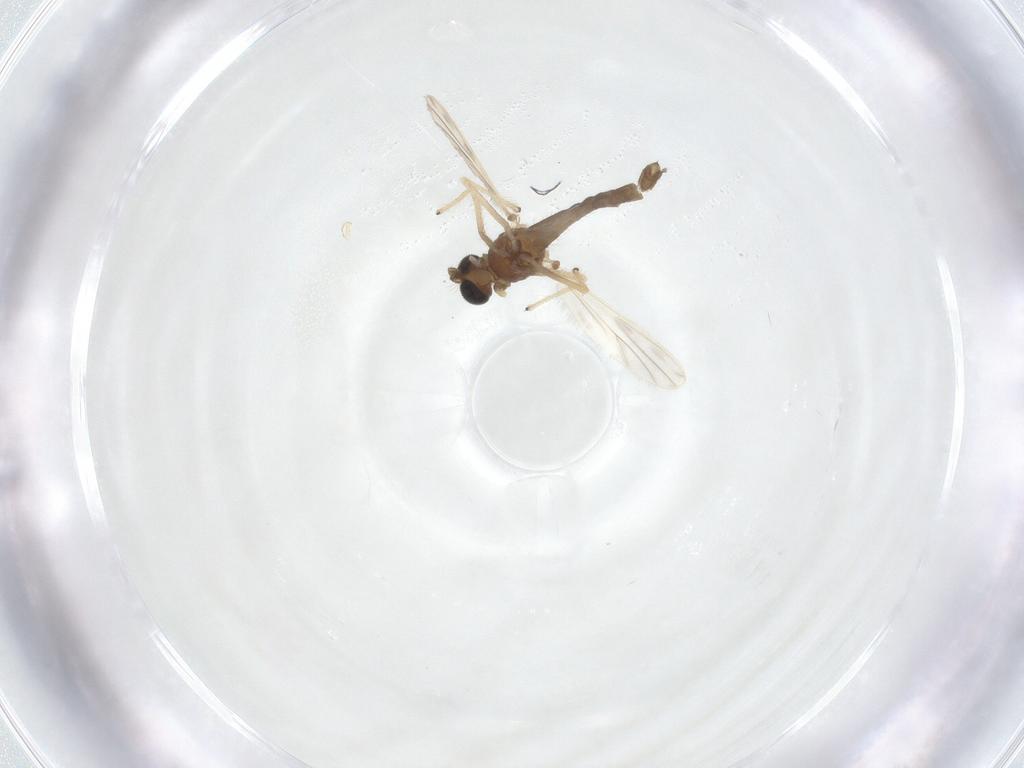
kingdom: Animalia
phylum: Arthropoda
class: Insecta
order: Diptera
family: Chironomidae
